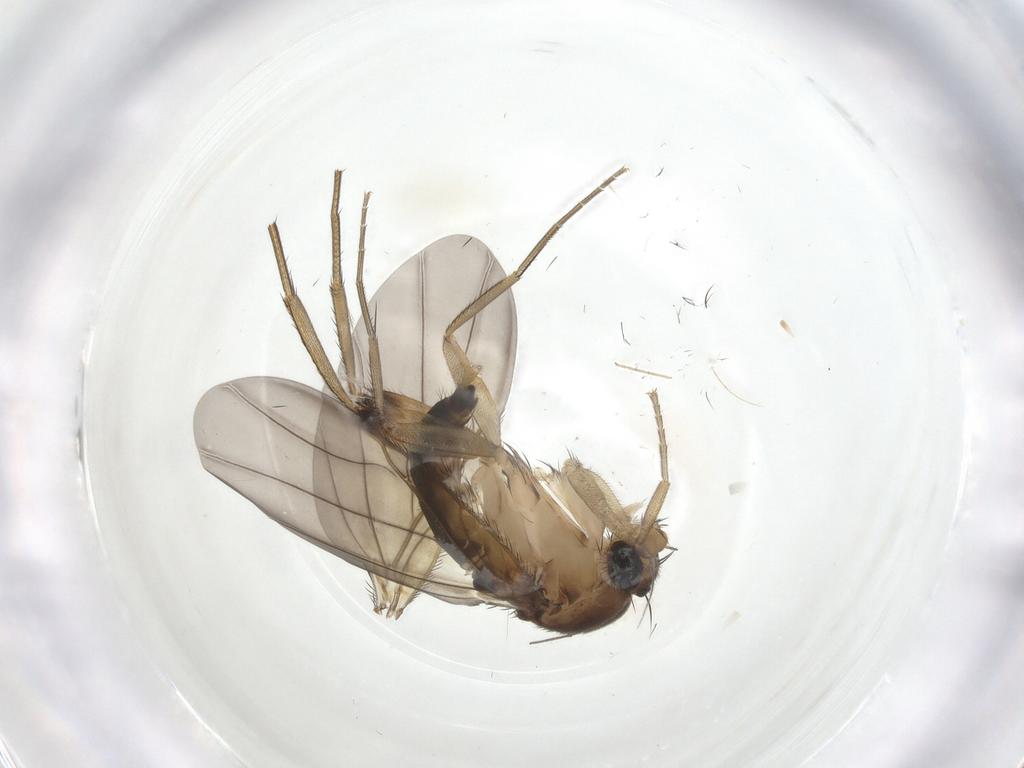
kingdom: Animalia
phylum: Arthropoda
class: Insecta
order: Diptera
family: Phoridae
